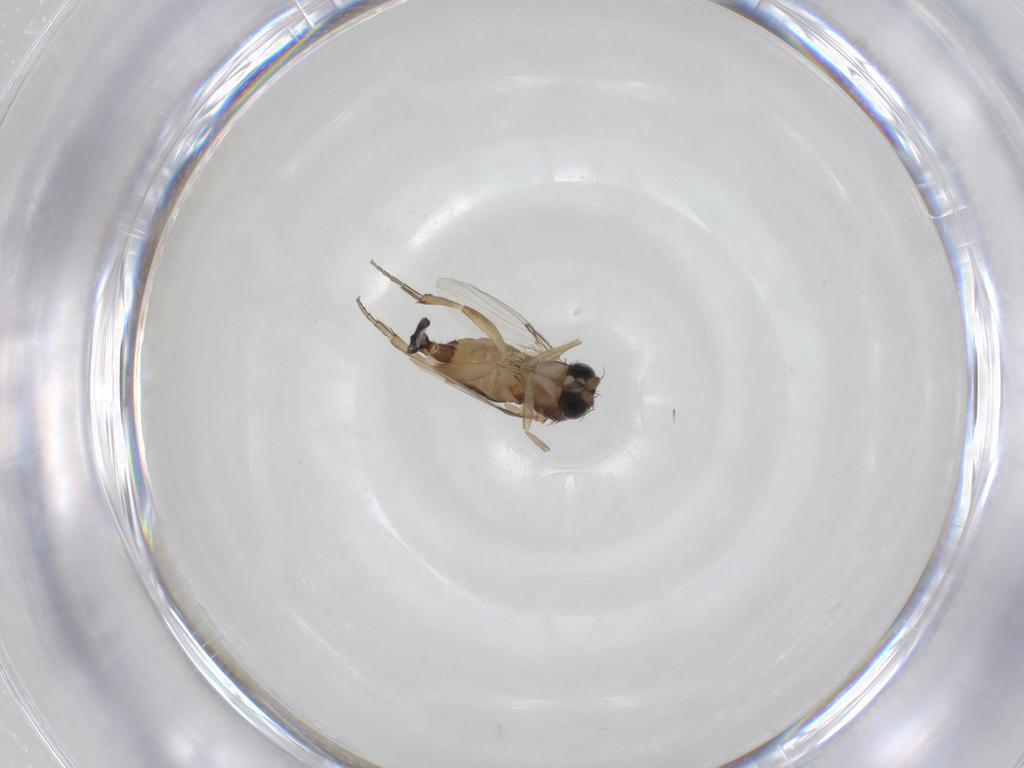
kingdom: Animalia
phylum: Arthropoda
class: Insecta
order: Diptera
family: Phoridae
